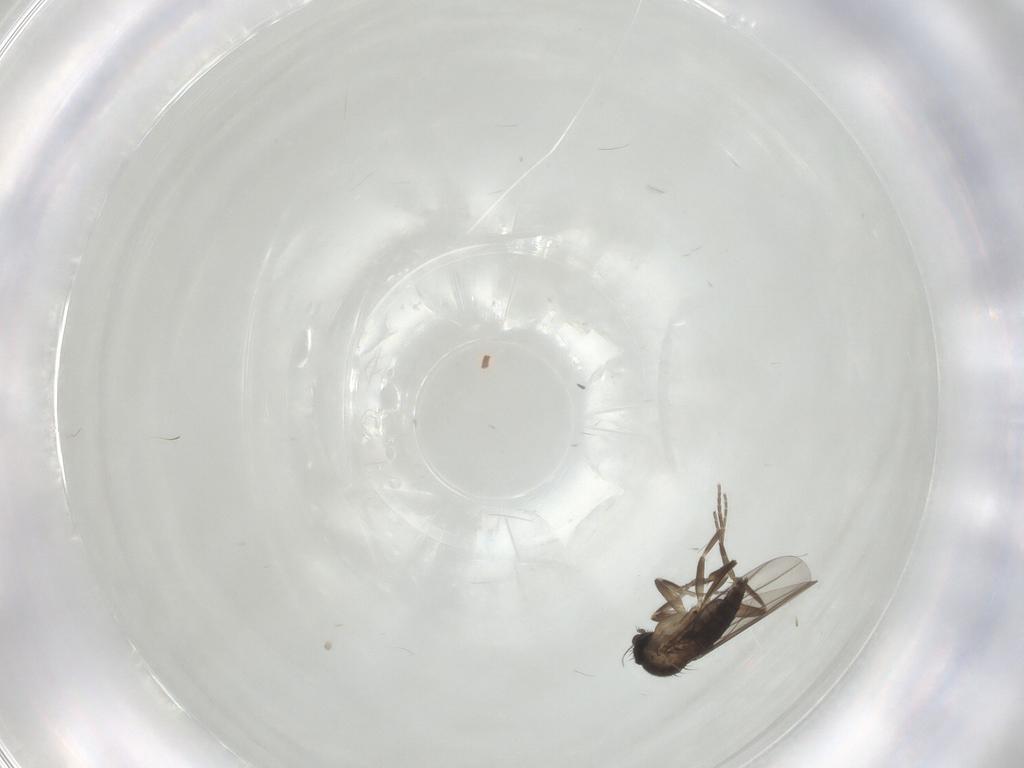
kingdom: Animalia
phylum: Arthropoda
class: Insecta
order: Diptera
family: Phoridae
